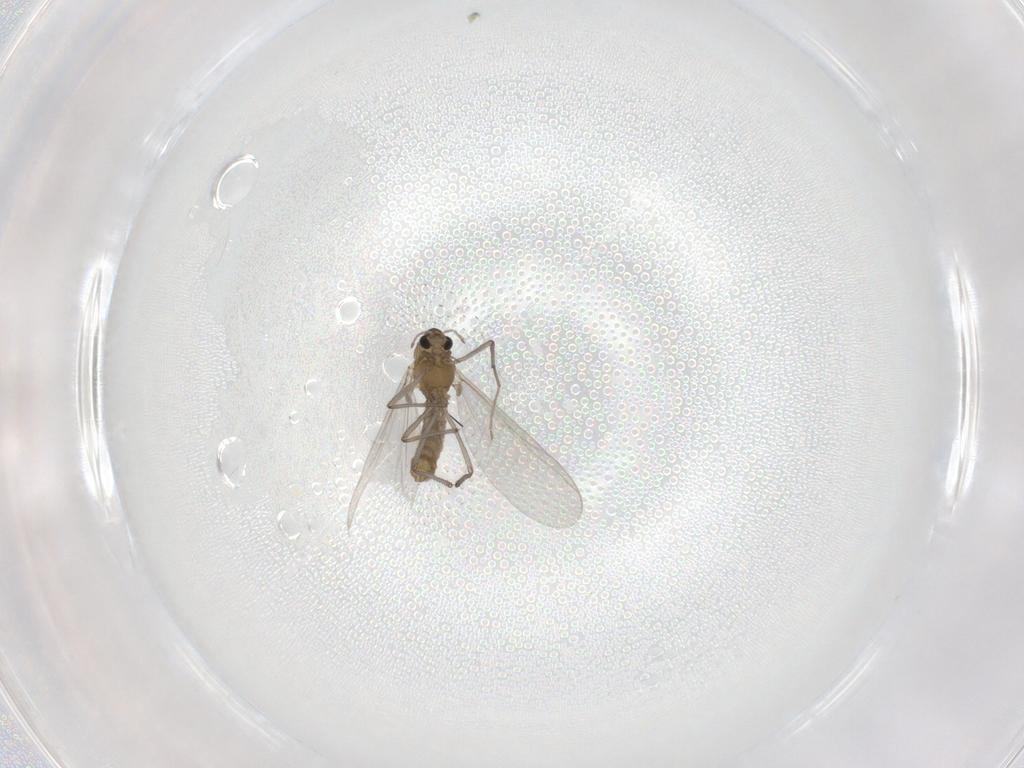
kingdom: Animalia
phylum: Arthropoda
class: Insecta
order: Diptera
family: Chironomidae
